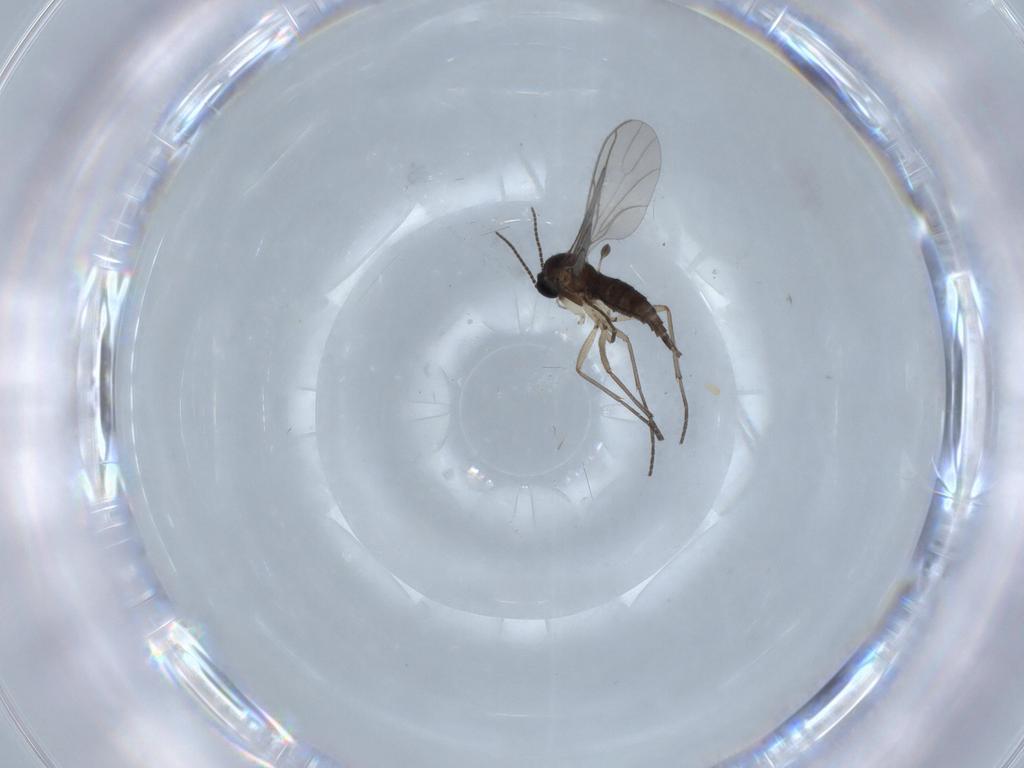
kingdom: Animalia
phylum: Arthropoda
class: Insecta
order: Diptera
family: Sciaridae
